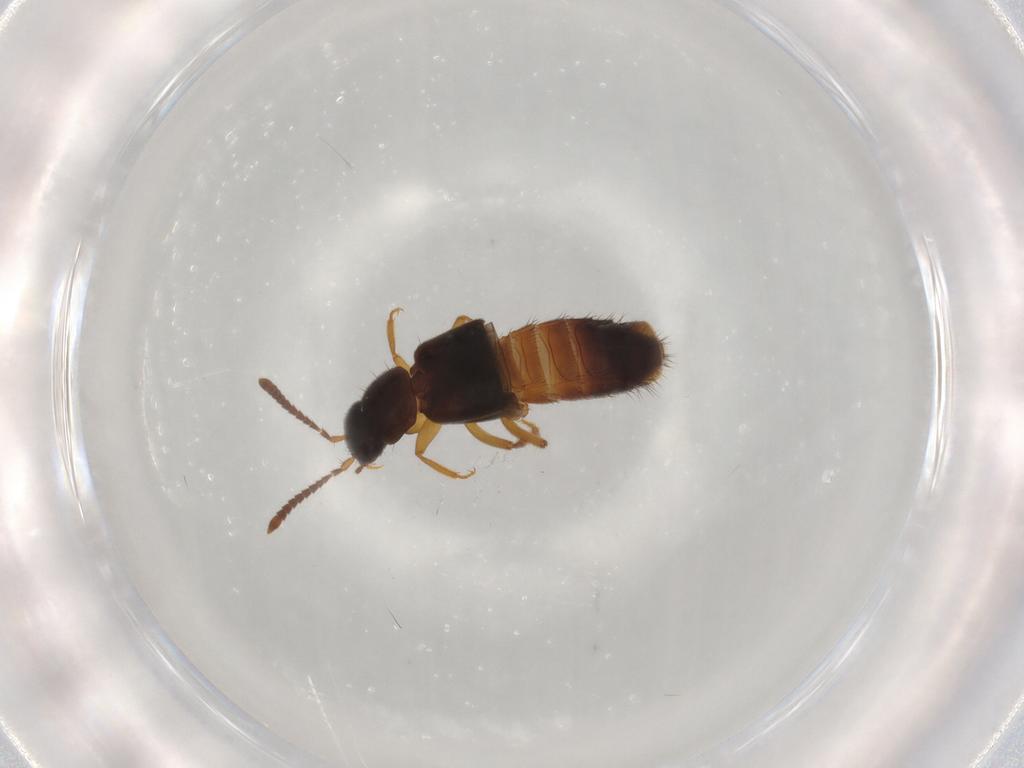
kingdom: Animalia
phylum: Arthropoda
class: Insecta
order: Coleoptera
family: Staphylinidae
